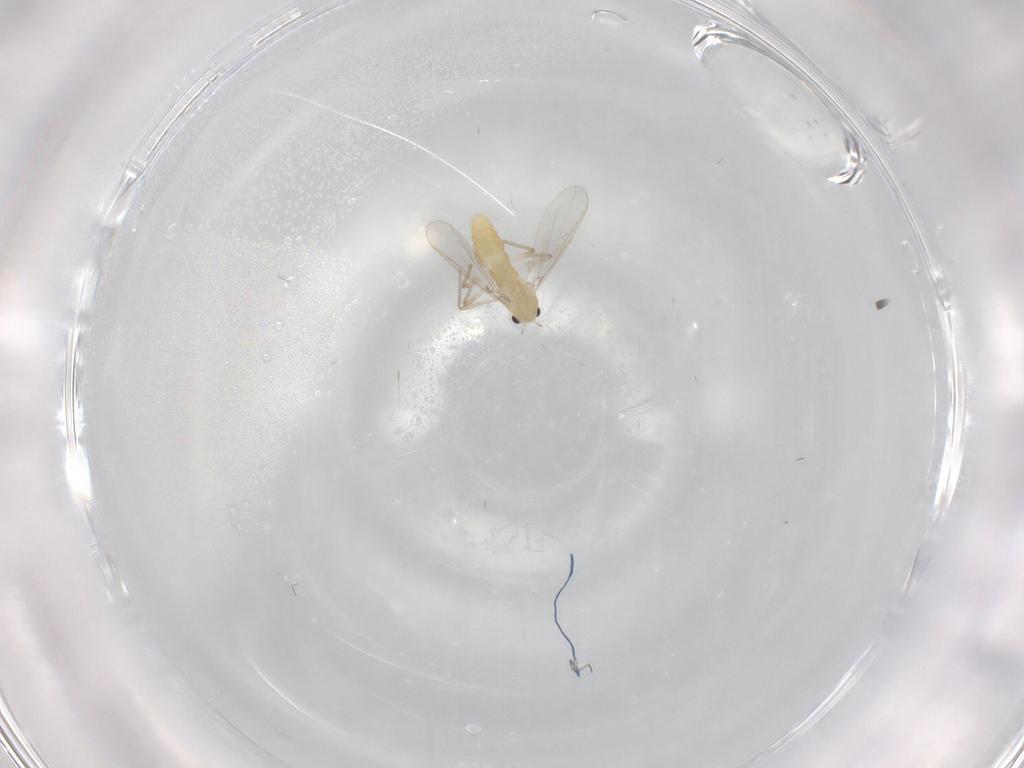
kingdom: Animalia
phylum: Arthropoda
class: Insecta
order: Diptera
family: Chironomidae
